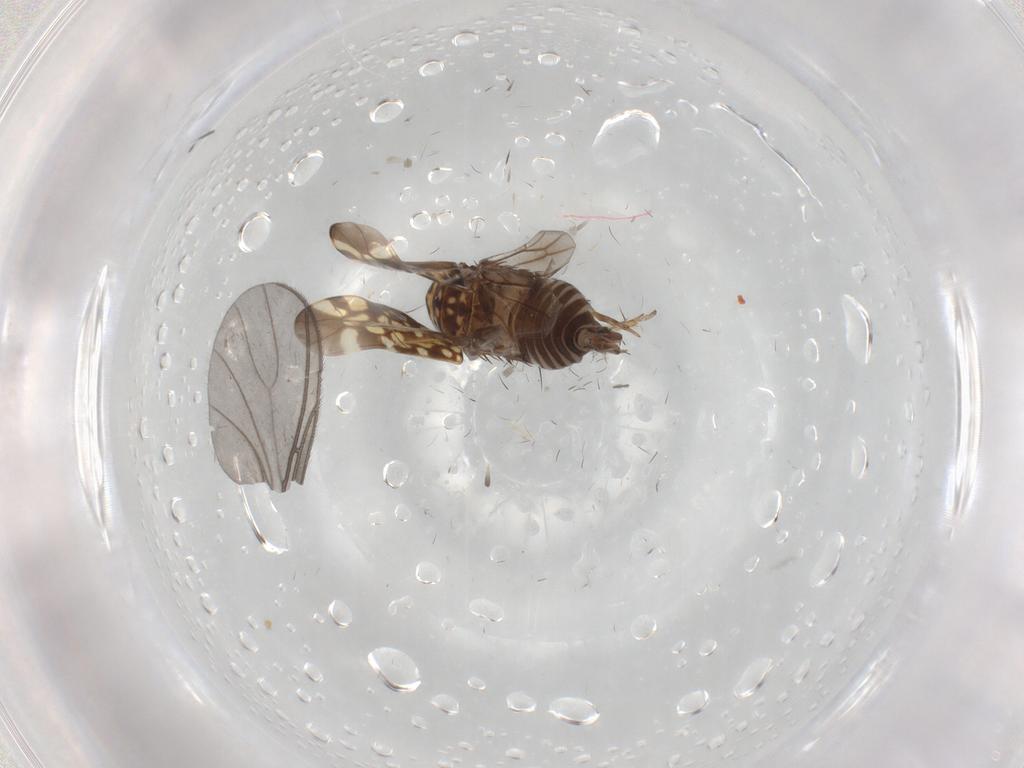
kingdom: Animalia
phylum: Arthropoda
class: Insecta
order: Hemiptera
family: Cicadellidae
